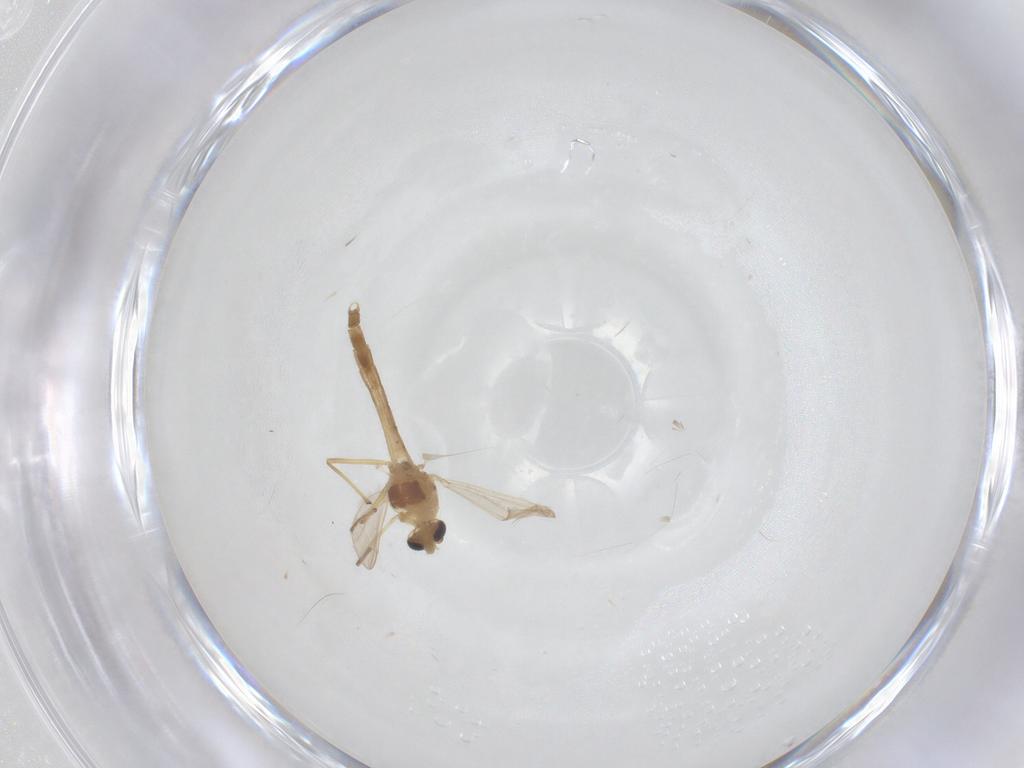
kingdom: Animalia
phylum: Arthropoda
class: Insecta
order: Diptera
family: Chironomidae
